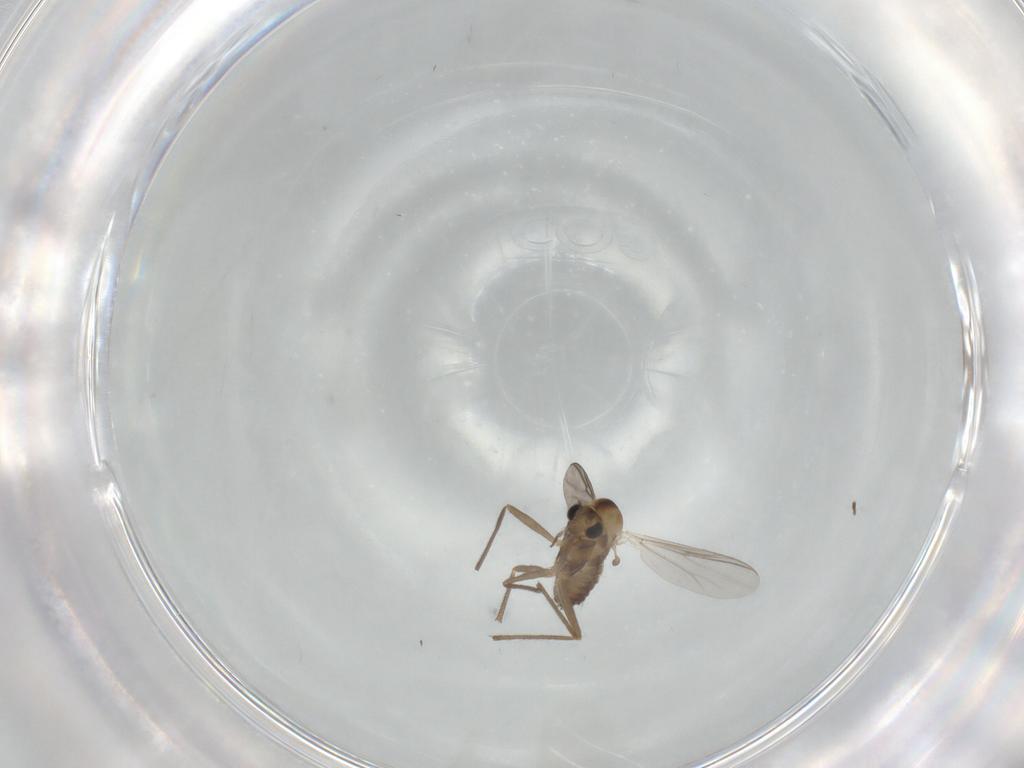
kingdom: Animalia
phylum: Arthropoda
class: Insecta
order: Diptera
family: Micropezidae
